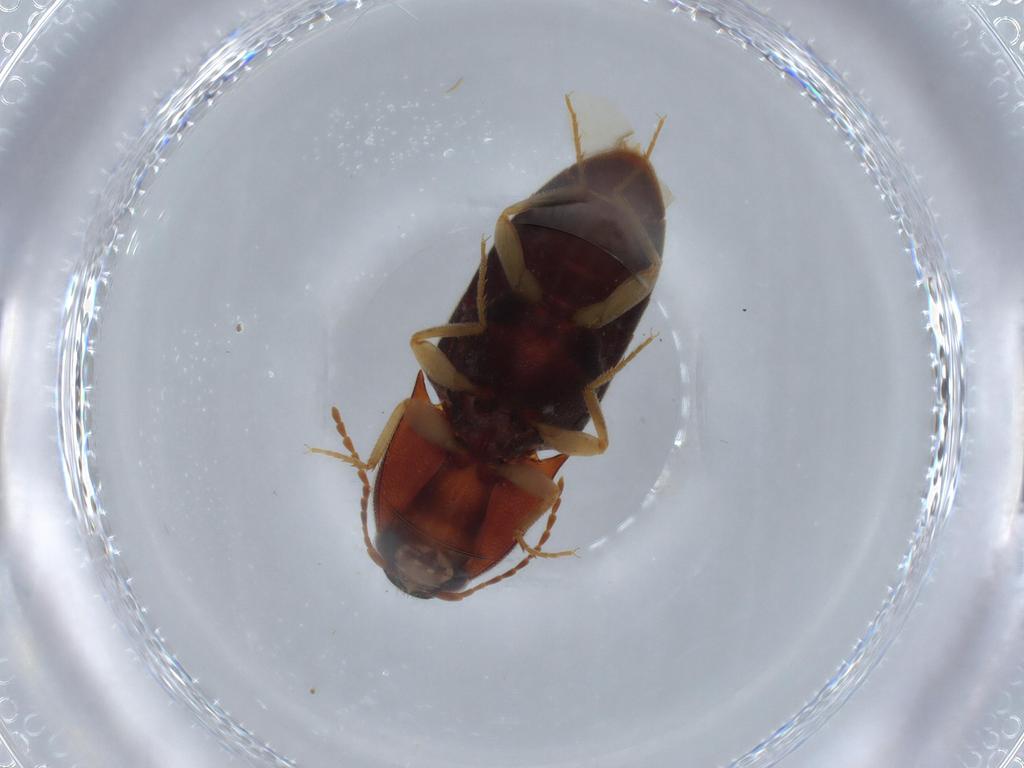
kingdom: Animalia
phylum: Arthropoda
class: Insecta
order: Coleoptera
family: Elateridae
